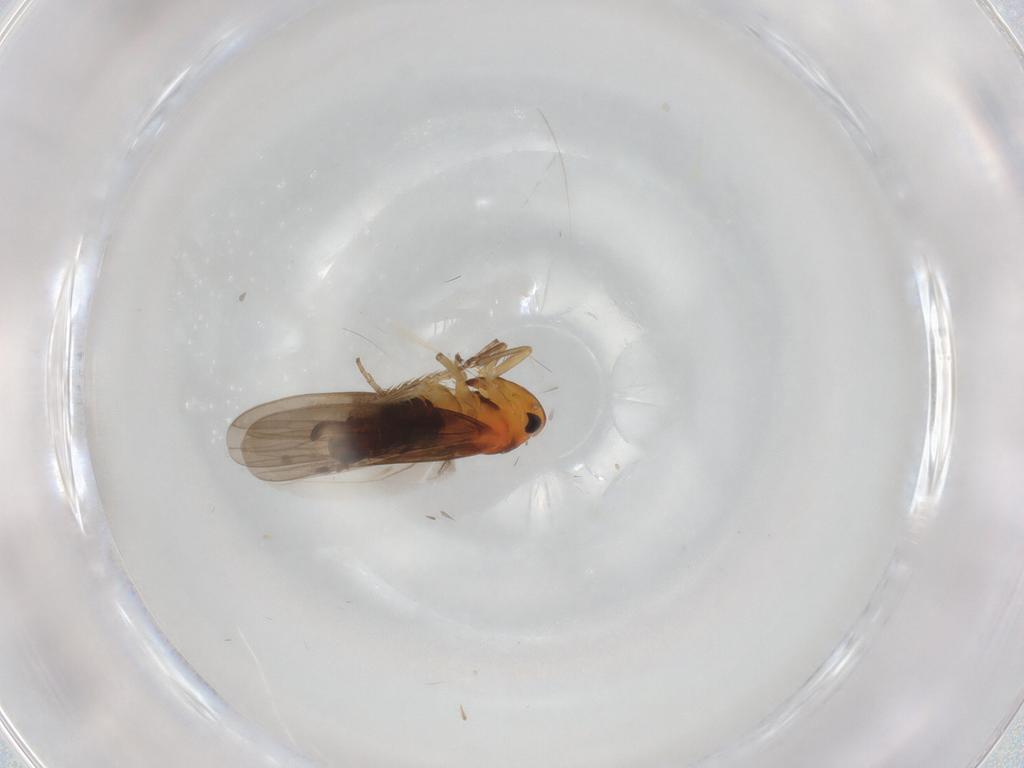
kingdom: Animalia
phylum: Arthropoda
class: Insecta
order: Hemiptera
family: Cicadellidae
